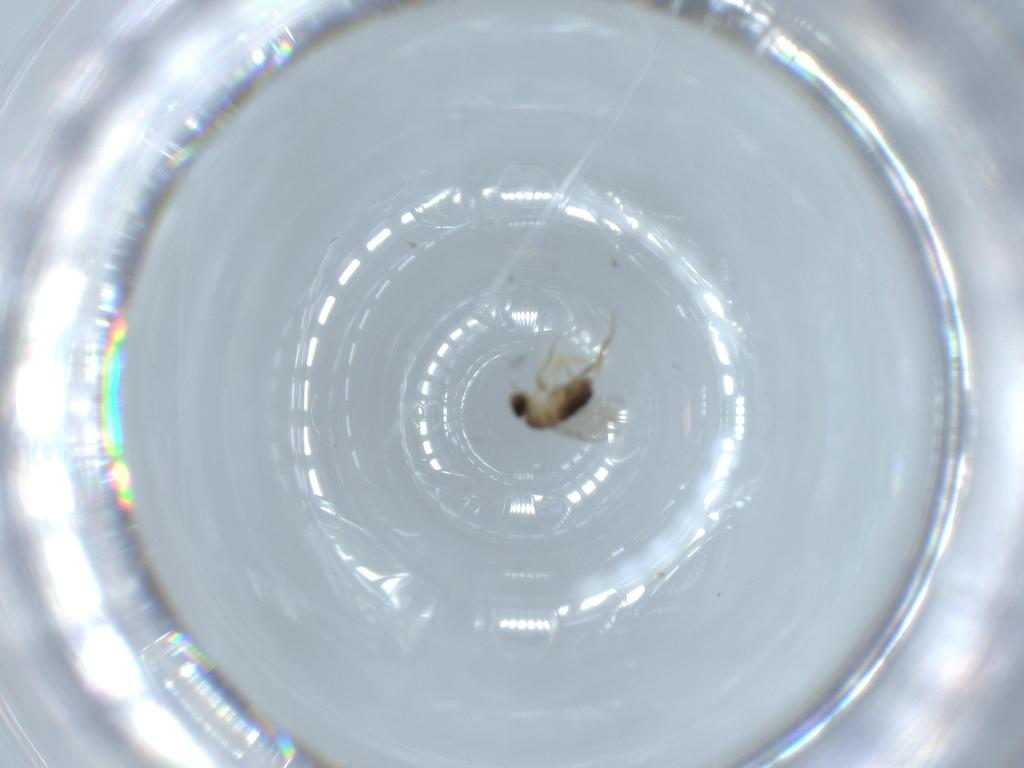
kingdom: Animalia
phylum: Arthropoda
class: Insecta
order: Diptera
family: Phoridae
